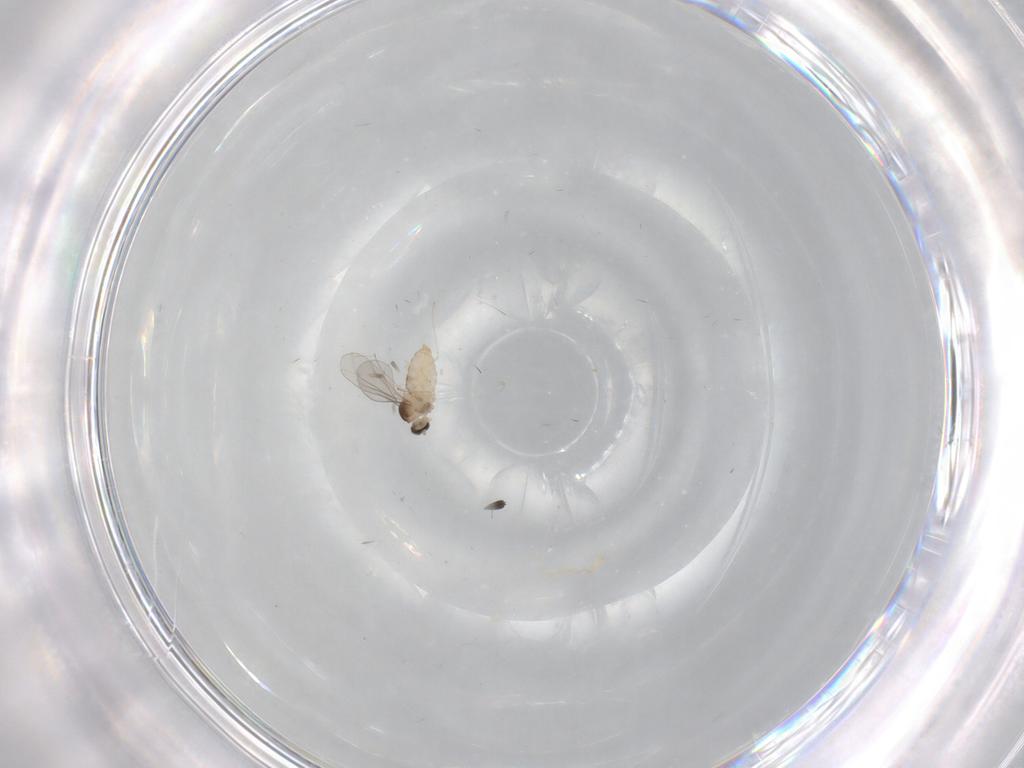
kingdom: Animalia
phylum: Arthropoda
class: Insecta
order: Diptera
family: Cecidomyiidae
